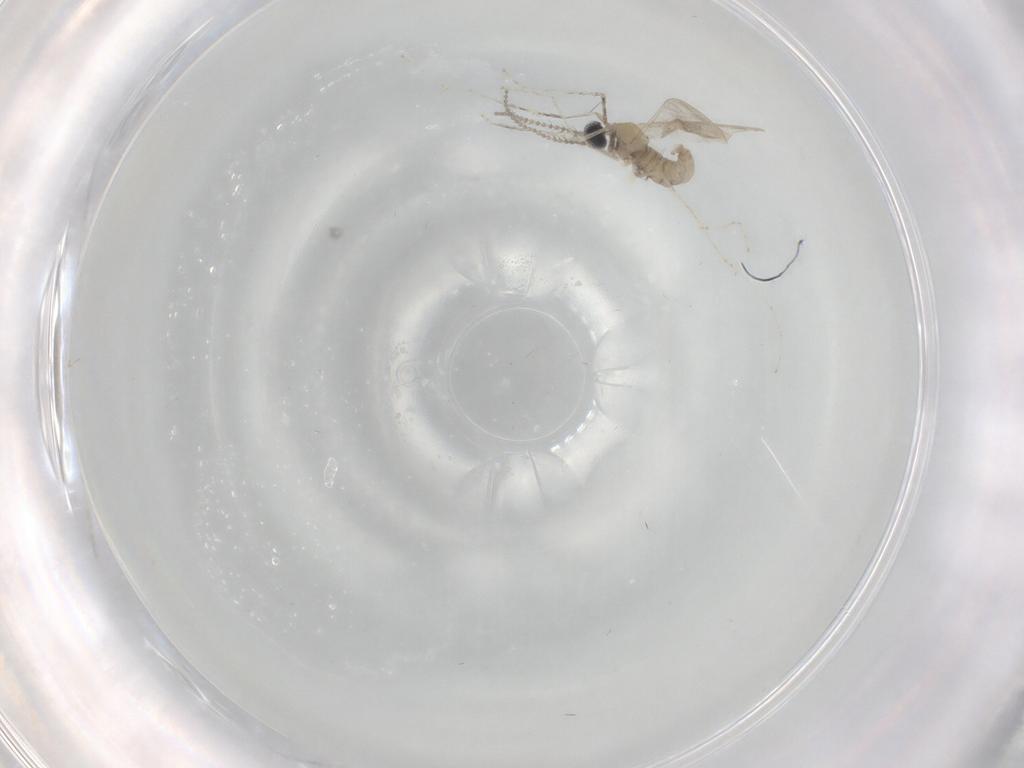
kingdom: Animalia
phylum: Arthropoda
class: Insecta
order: Diptera
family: Cecidomyiidae
